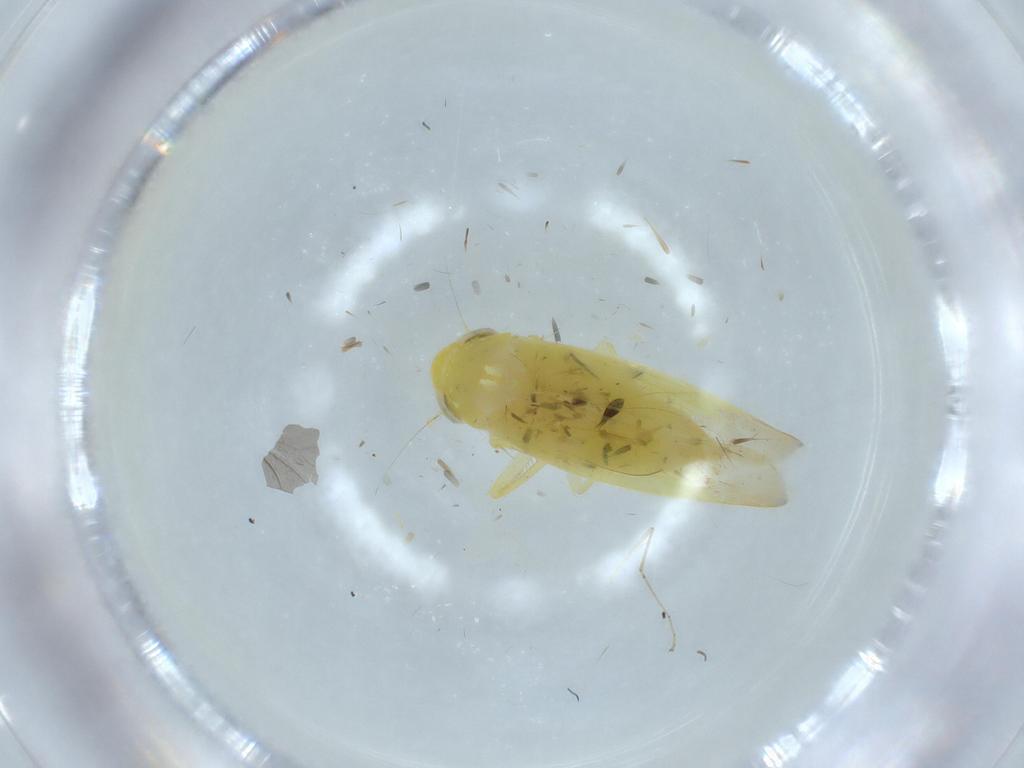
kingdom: Animalia
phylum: Arthropoda
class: Insecta
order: Hemiptera
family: Cicadellidae
